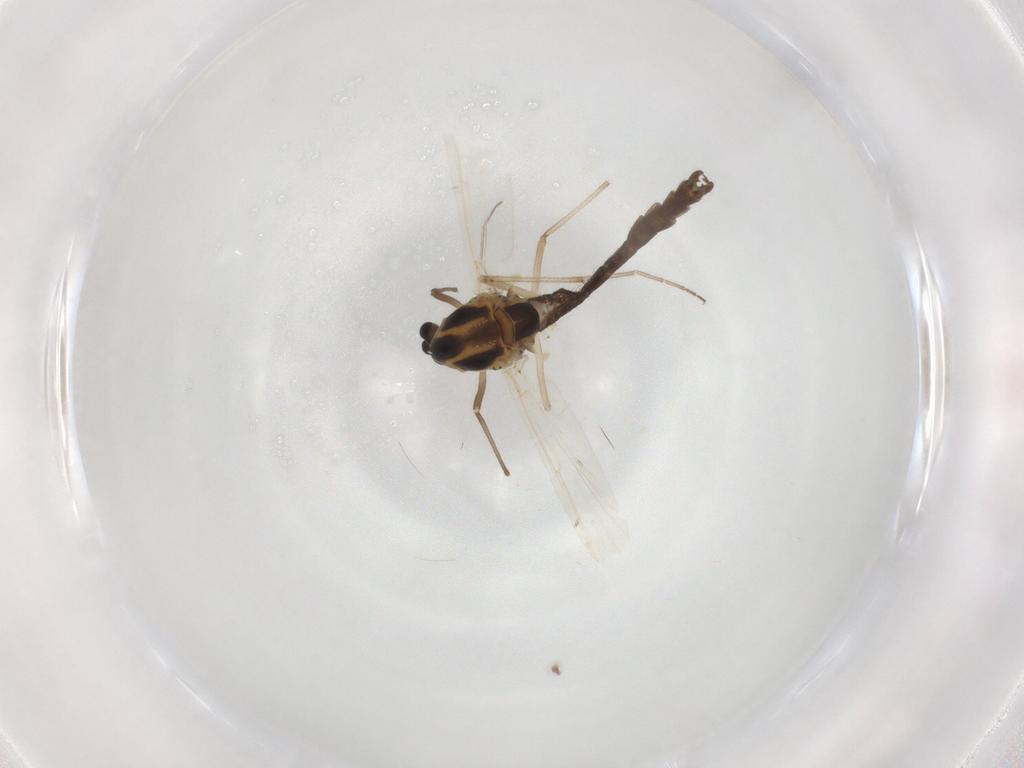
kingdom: Animalia
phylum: Arthropoda
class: Insecta
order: Diptera
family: Chironomidae
